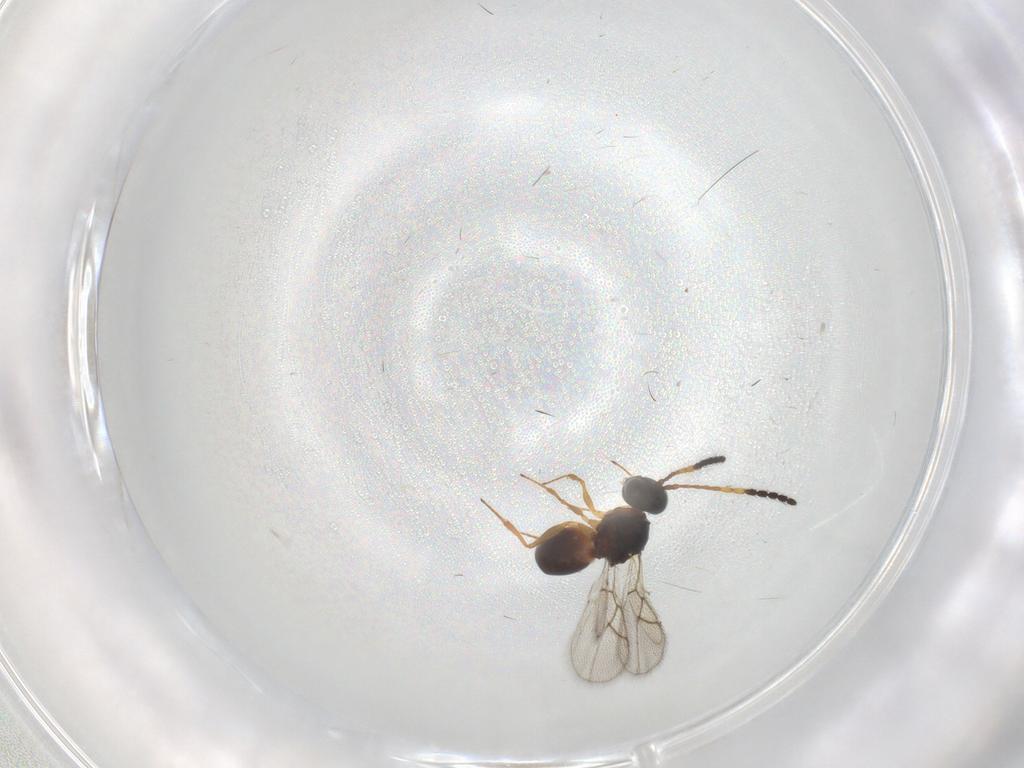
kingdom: Animalia
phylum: Arthropoda
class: Insecta
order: Hymenoptera
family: Figitidae
